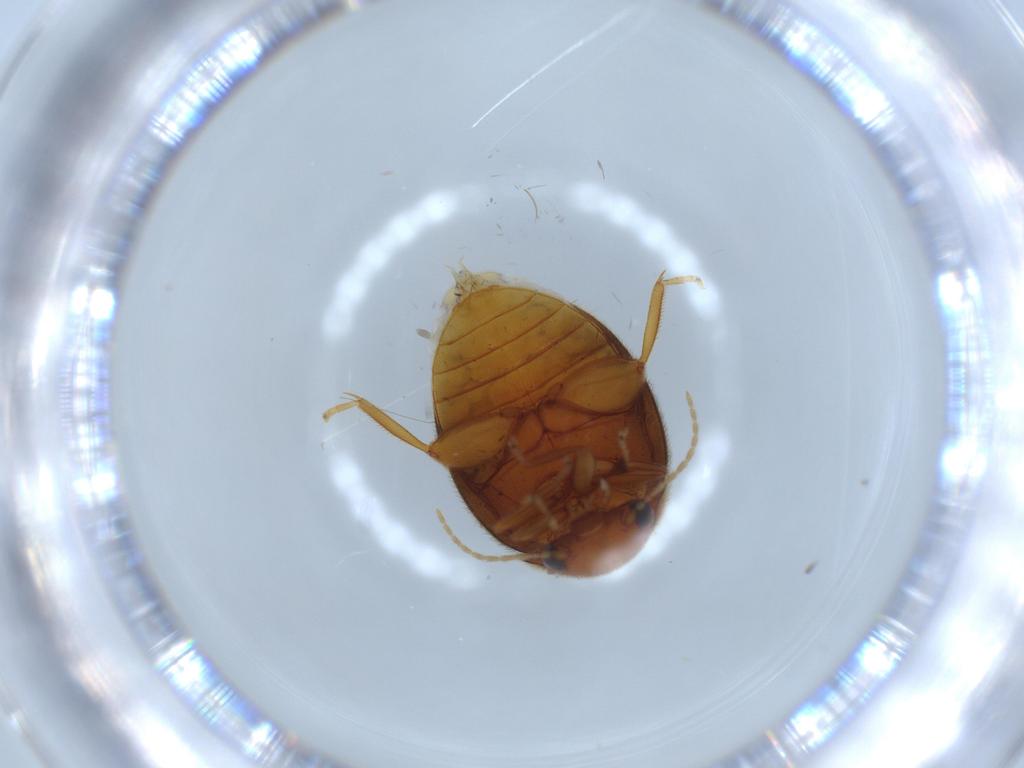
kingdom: Animalia
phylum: Arthropoda
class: Insecta
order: Coleoptera
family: Scirtidae
